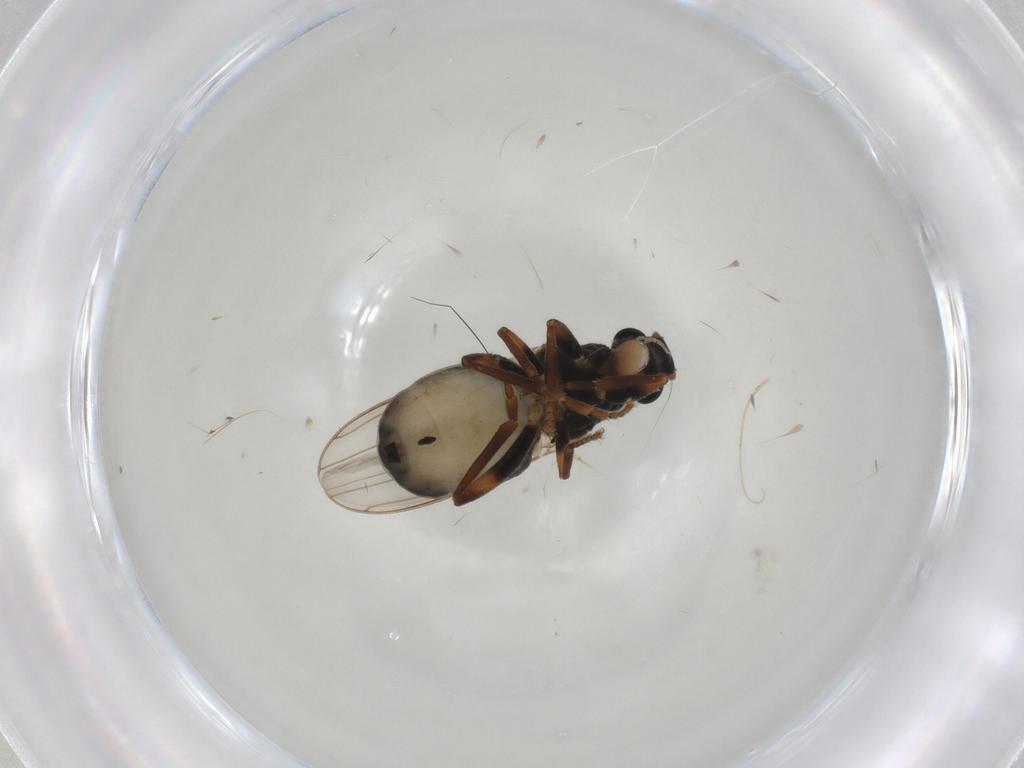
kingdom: Animalia
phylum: Arthropoda
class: Insecta
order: Diptera
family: Sphaeroceridae
